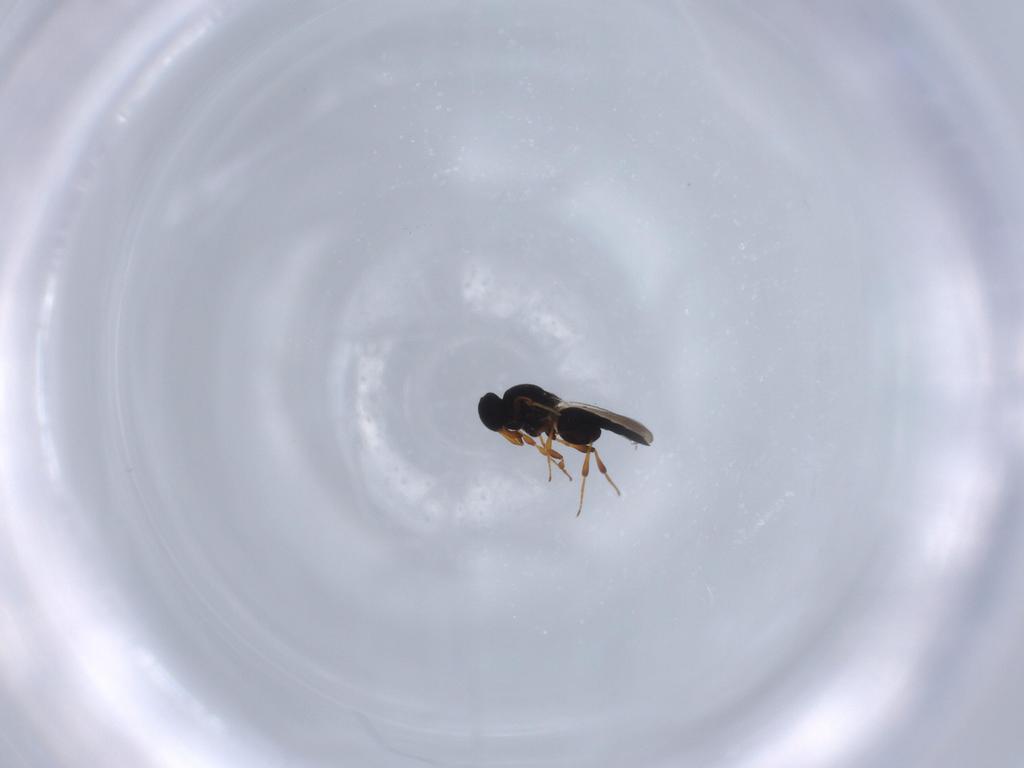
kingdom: Animalia
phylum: Arthropoda
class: Insecta
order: Hymenoptera
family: Platygastridae
